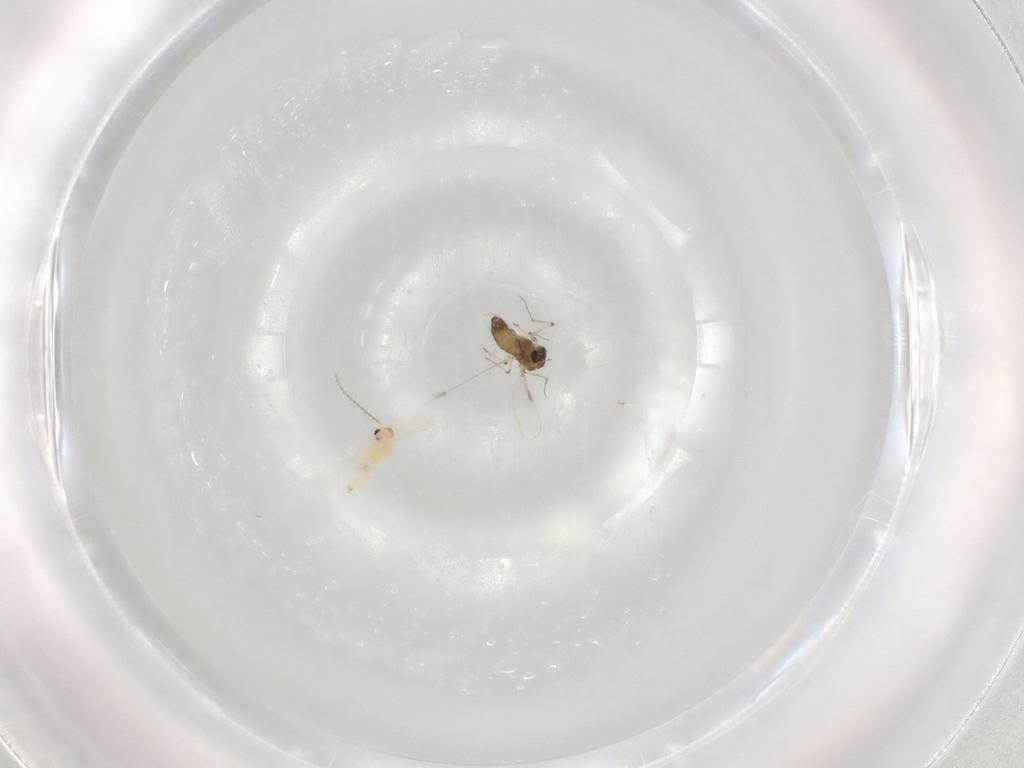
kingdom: Animalia
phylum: Arthropoda
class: Insecta
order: Diptera
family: Chironomidae
